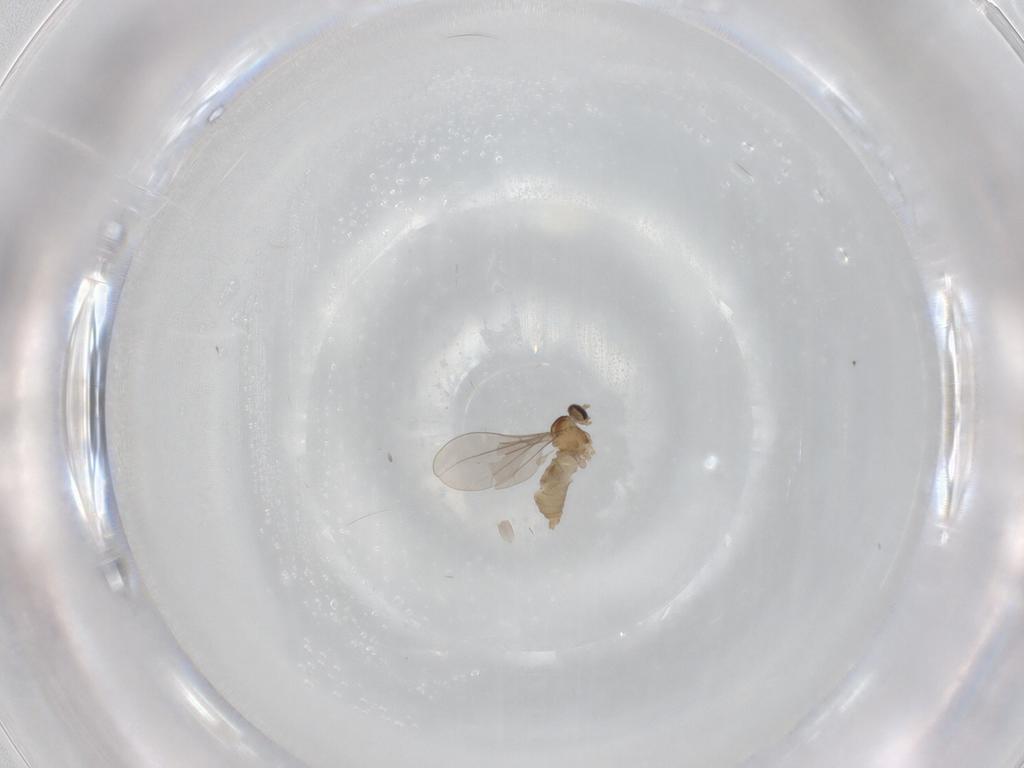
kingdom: Animalia
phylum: Arthropoda
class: Insecta
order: Diptera
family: Cecidomyiidae
